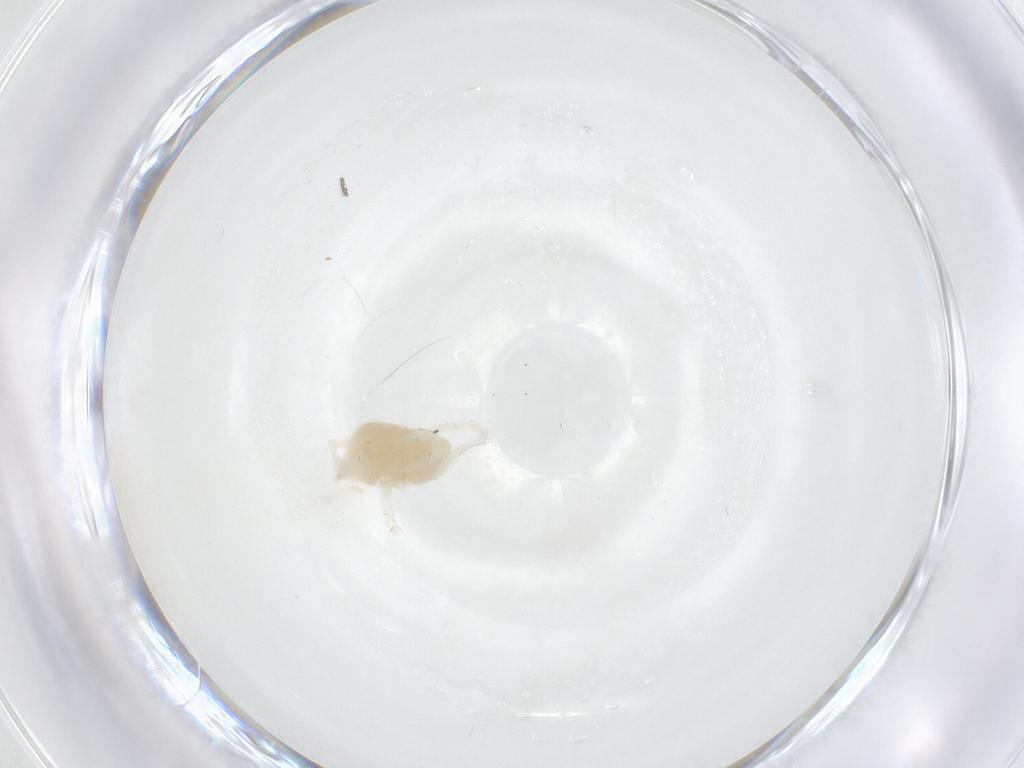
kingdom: Animalia
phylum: Arthropoda
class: Arachnida
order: Trombidiformes
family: Teneriffiidae
